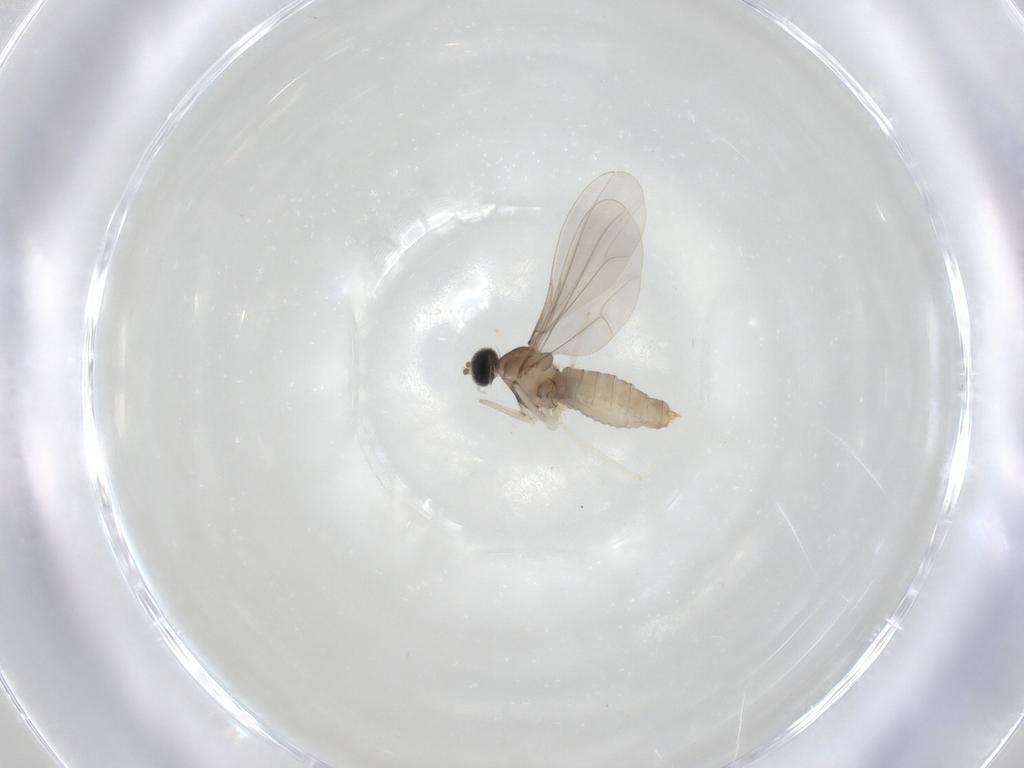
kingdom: Animalia
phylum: Arthropoda
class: Insecta
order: Diptera
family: Cecidomyiidae
